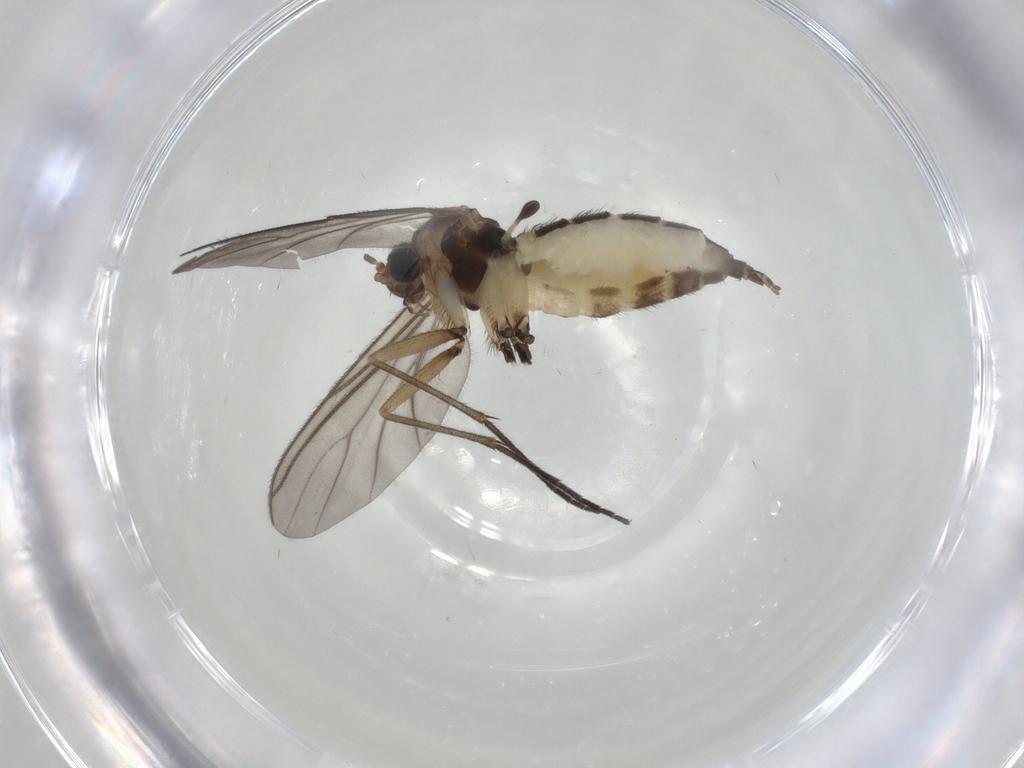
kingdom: Animalia
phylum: Arthropoda
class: Insecta
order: Diptera
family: Sciaridae
